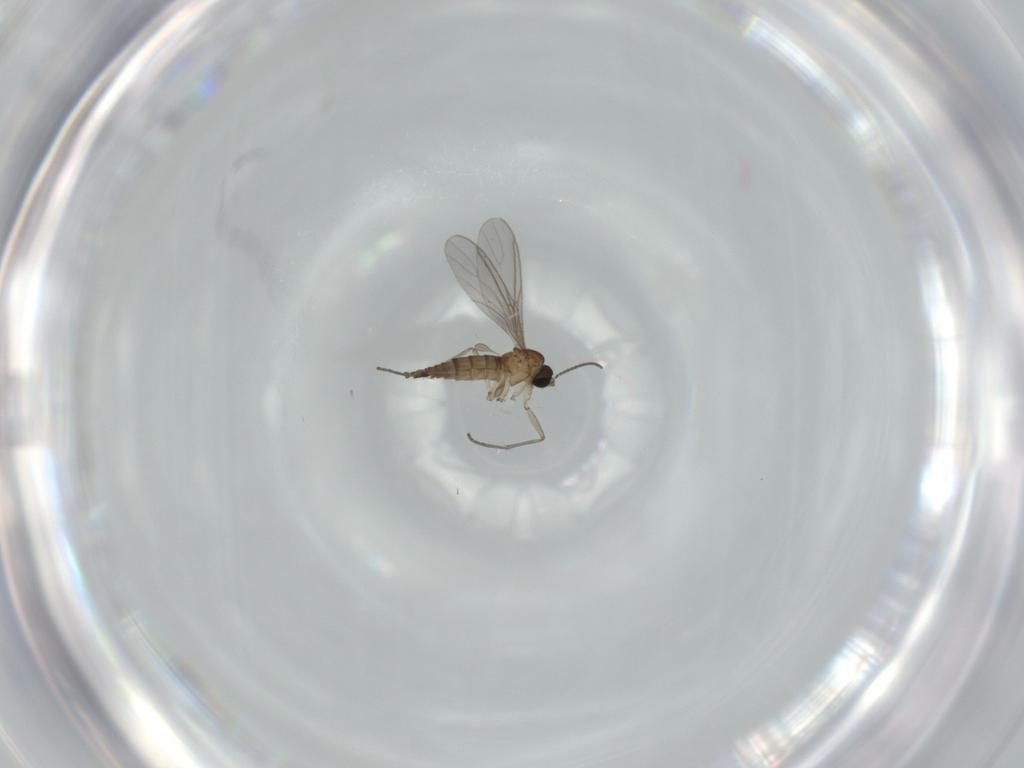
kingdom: Animalia
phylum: Arthropoda
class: Insecta
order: Diptera
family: Sciaridae
